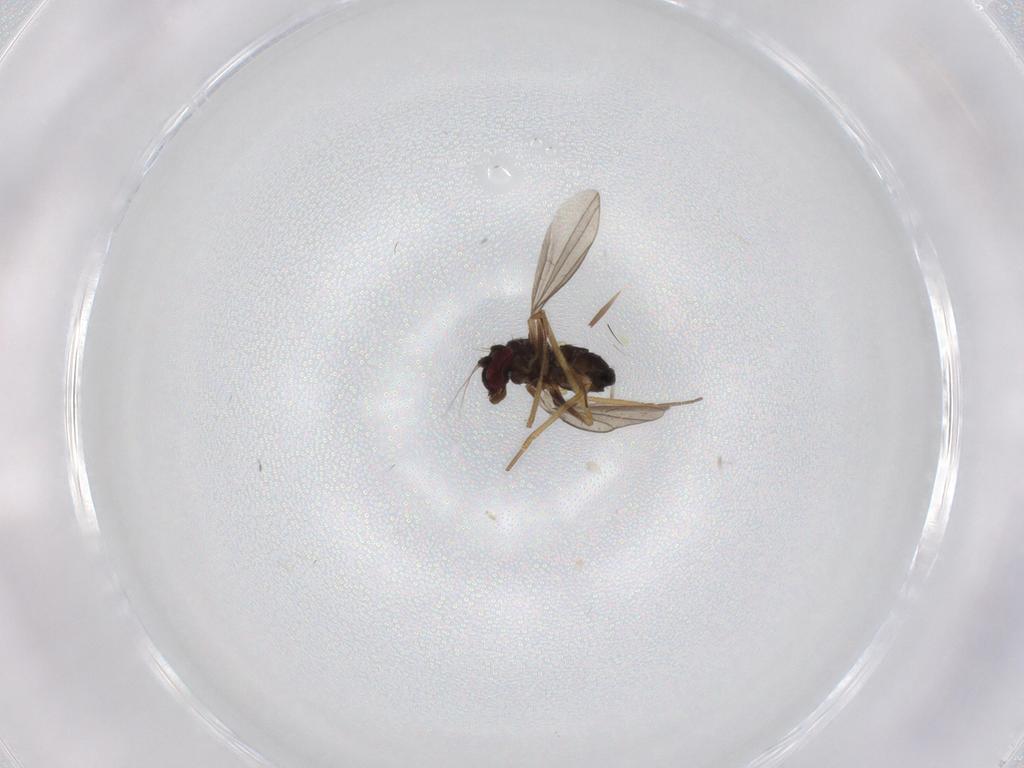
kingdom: Animalia
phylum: Arthropoda
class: Insecta
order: Diptera
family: Dolichopodidae
